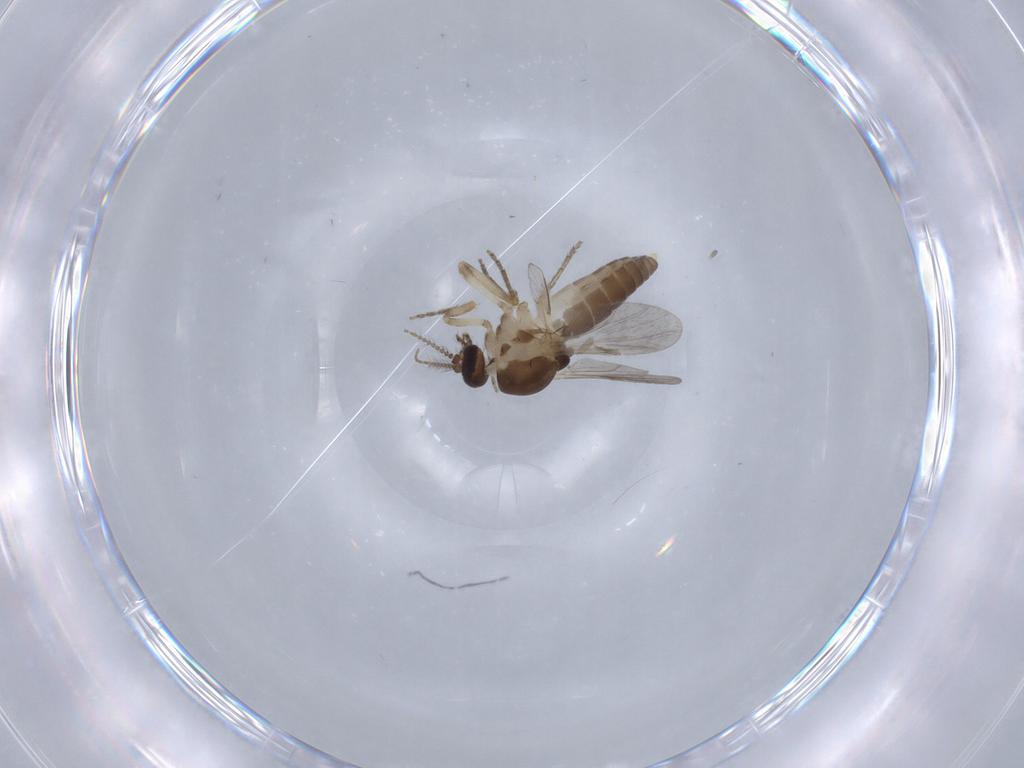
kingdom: Animalia
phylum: Arthropoda
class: Insecta
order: Diptera
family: Ceratopogonidae
